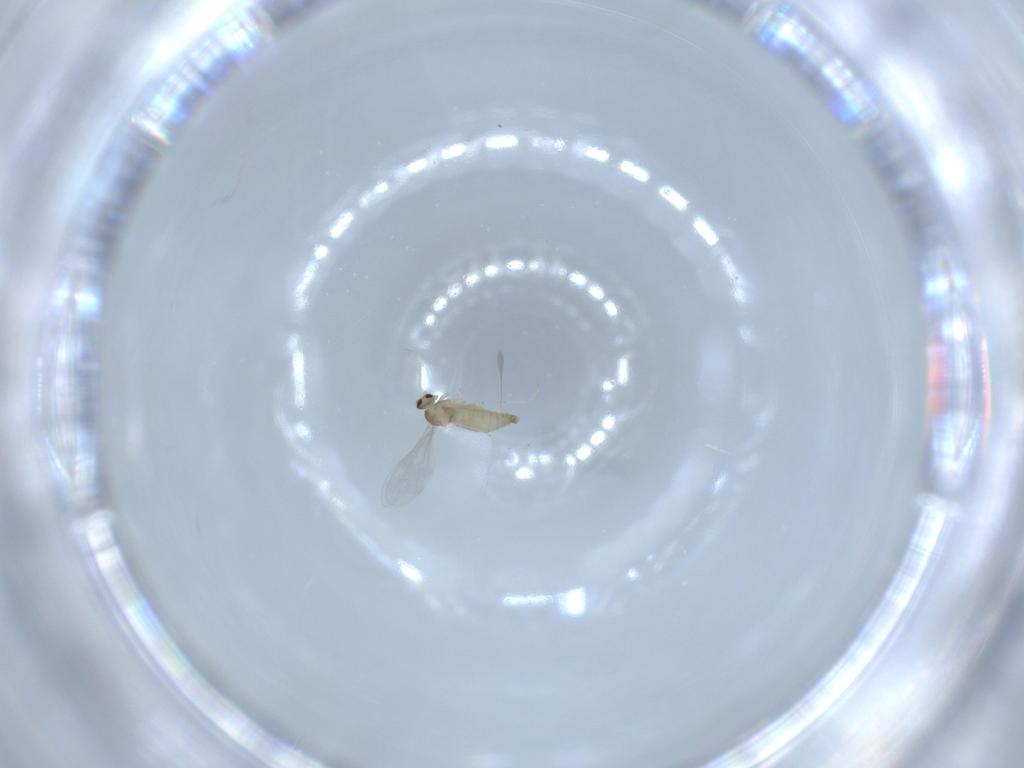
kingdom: Animalia
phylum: Arthropoda
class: Insecta
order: Diptera
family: Cecidomyiidae
